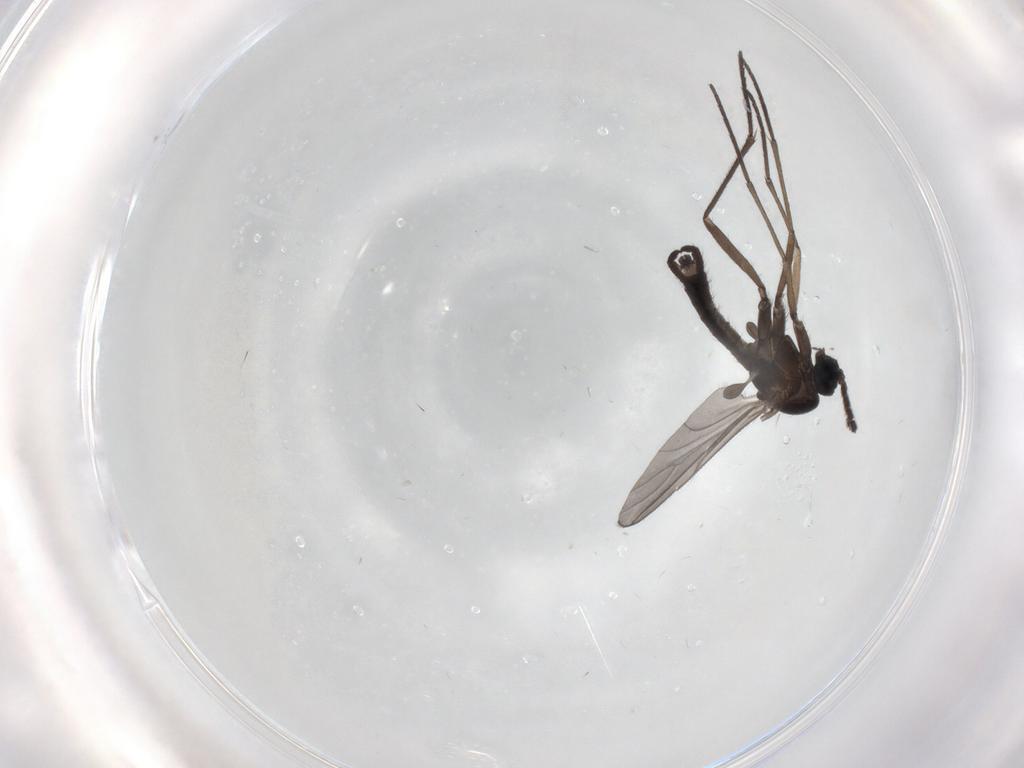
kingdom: Animalia
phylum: Arthropoda
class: Insecta
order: Diptera
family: Sciaridae
